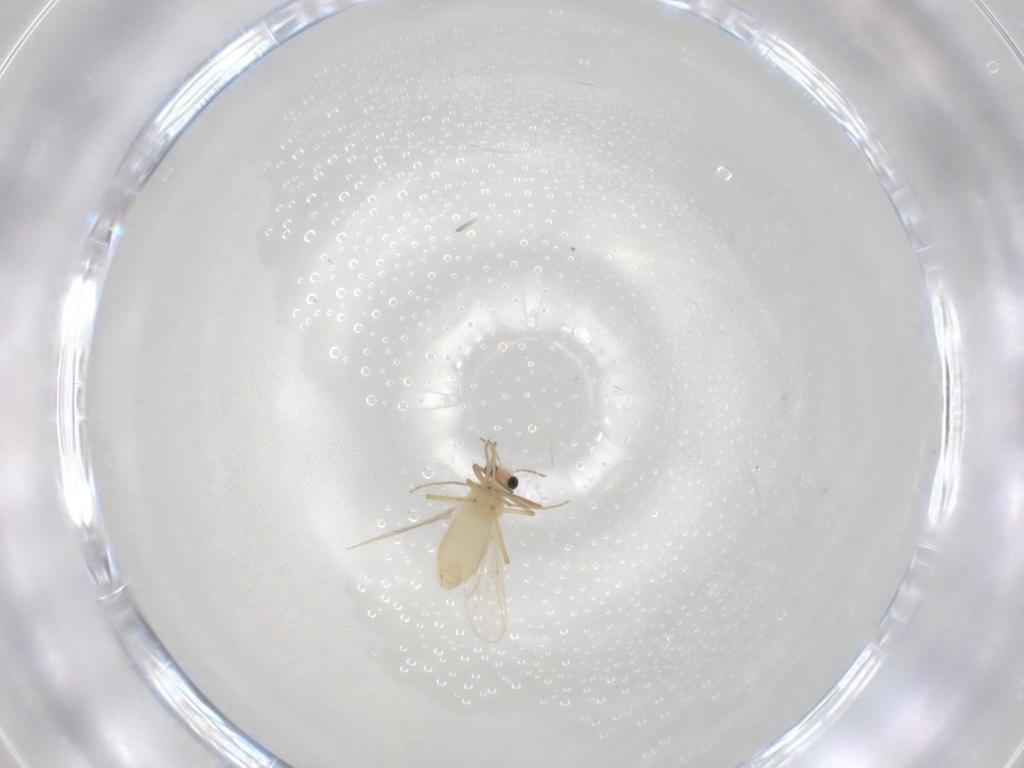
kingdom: Animalia
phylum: Arthropoda
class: Insecta
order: Diptera
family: Chironomidae
